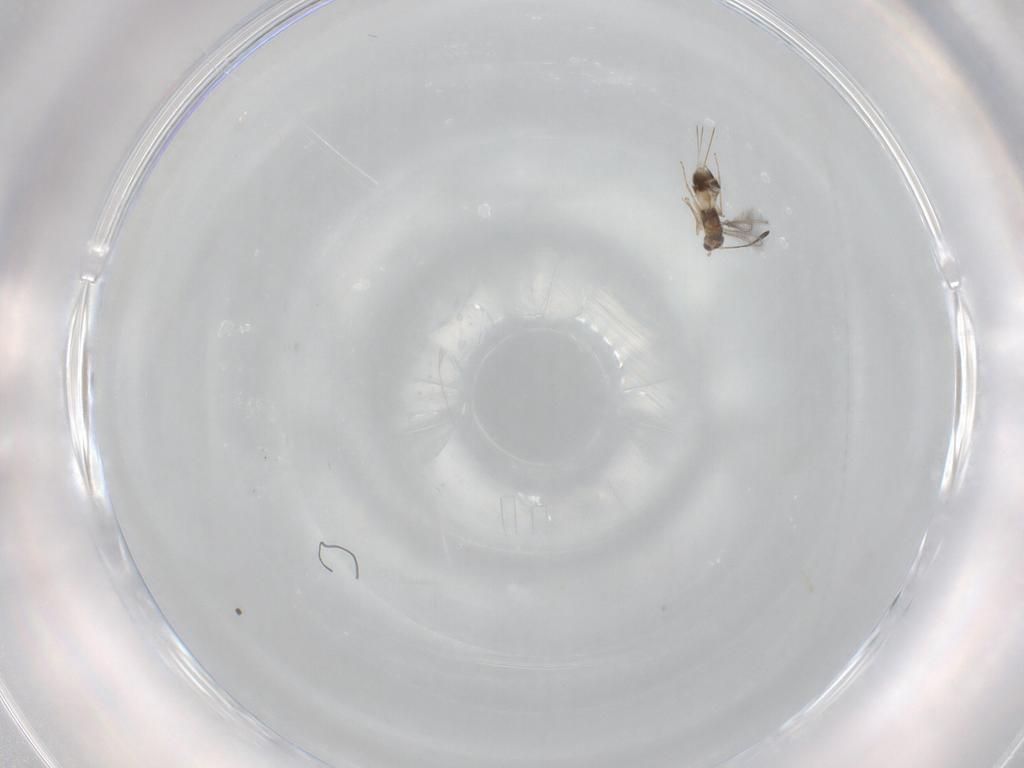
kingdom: Animalia
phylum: Arthropoda
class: Insecta
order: Hymenoptera
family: Mymaridae
